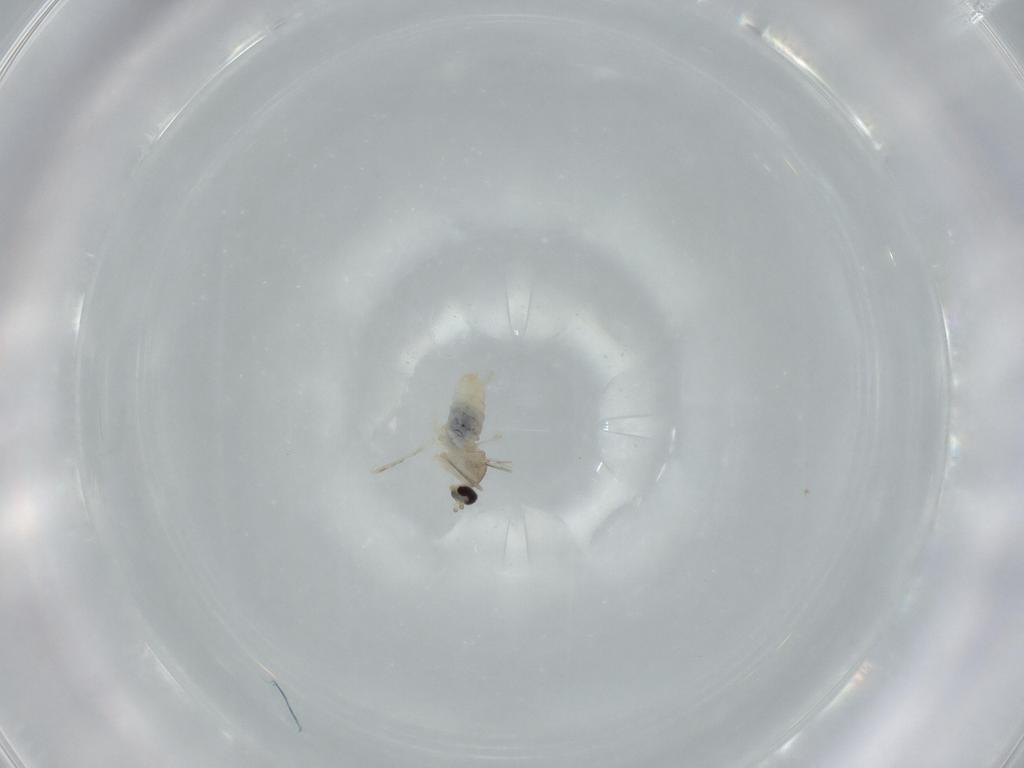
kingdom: Animalia
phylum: Arthropoda
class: Insecta
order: Diptera
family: Cecidomyiidae
